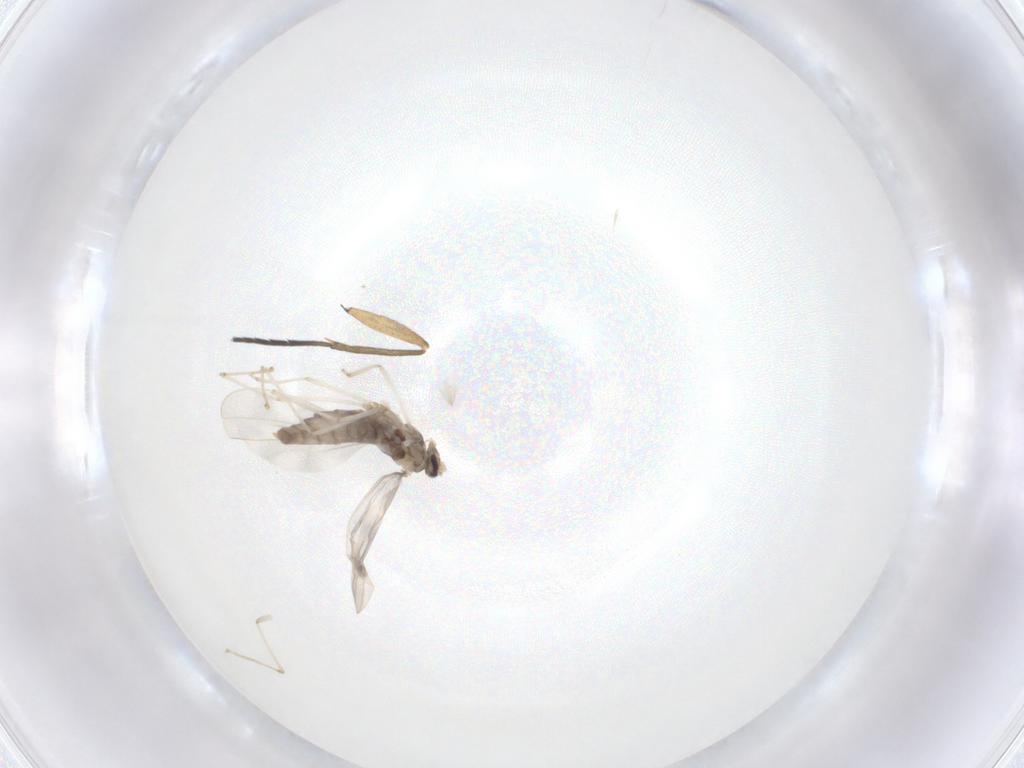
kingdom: Animalia
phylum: Arthropoda
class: Insecta
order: Diptera
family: Cecidomyiidae
